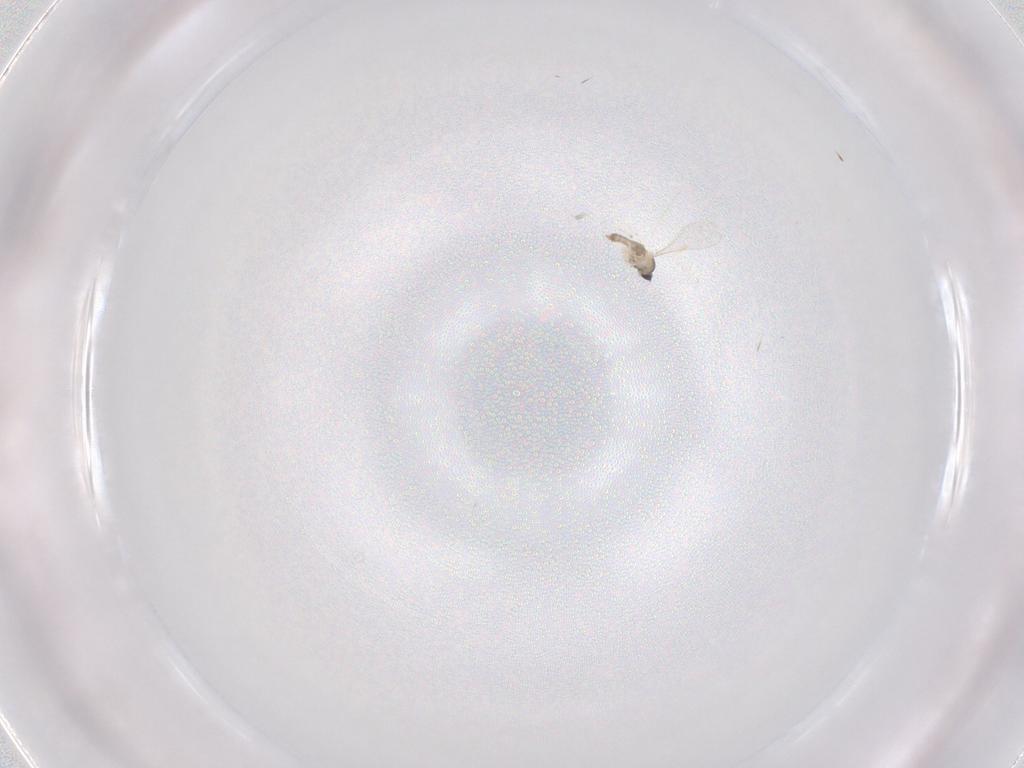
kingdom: Animalia
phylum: Arthropoda
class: Insecta
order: Diptera
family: Sciaridae
